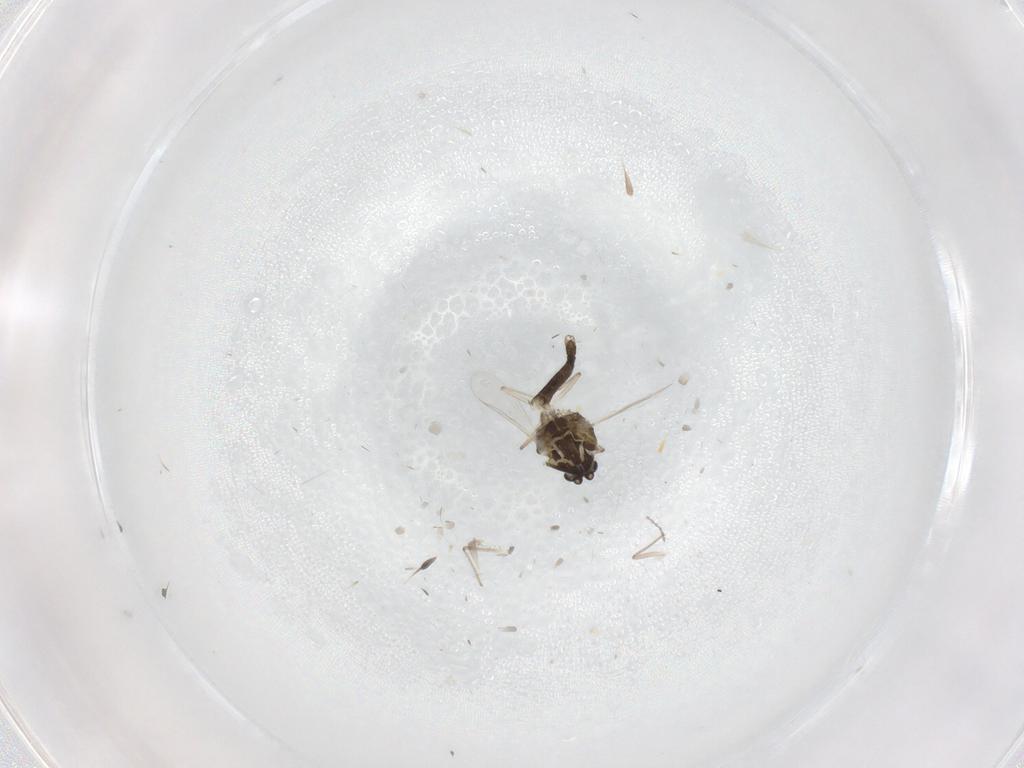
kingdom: Animalia
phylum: Arthropoda
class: Insecta
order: Diptera
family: Chironomidae
